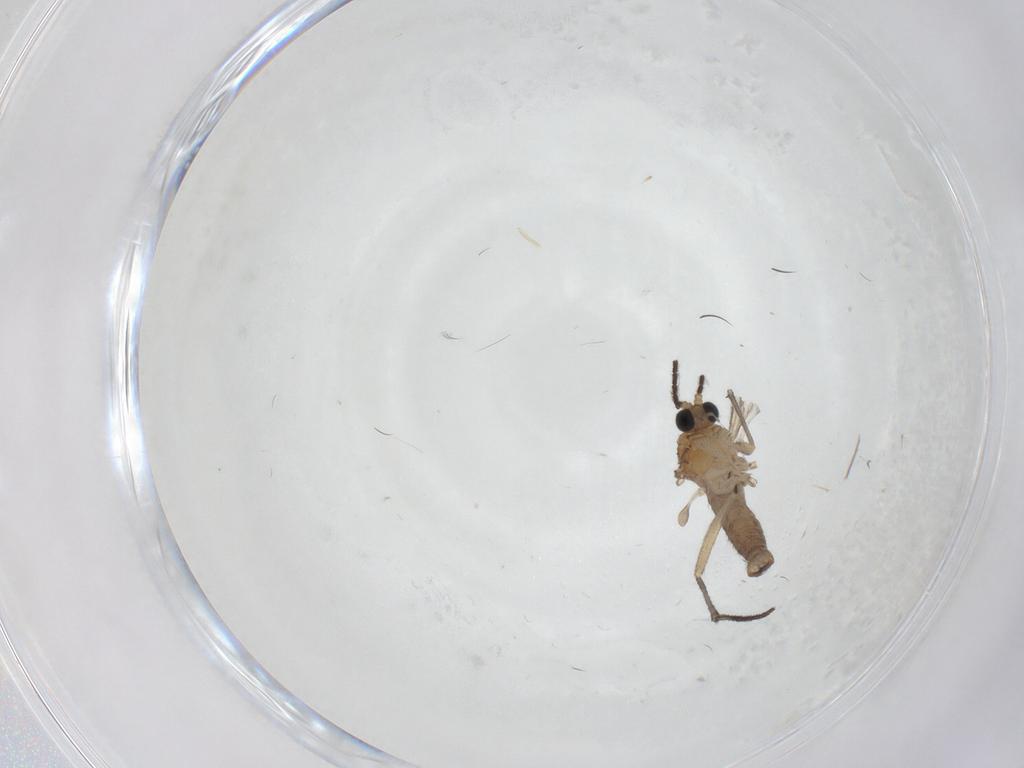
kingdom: Animalia
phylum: Arthropoda
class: Insecta
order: Diptera
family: Sciaridae
